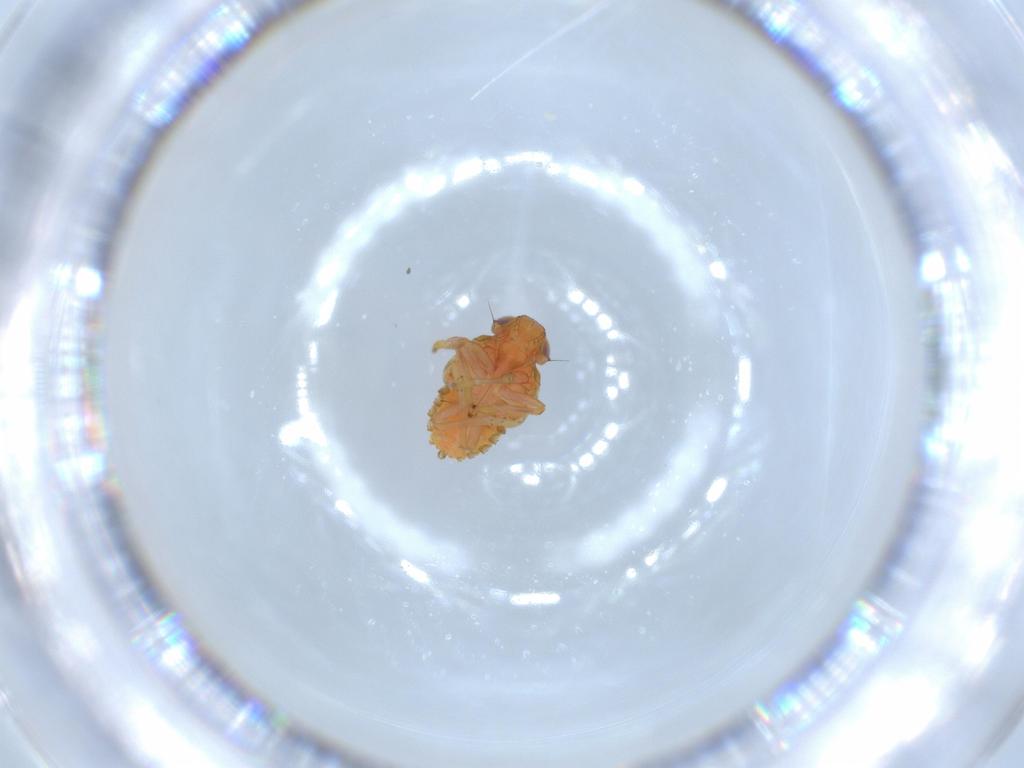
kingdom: Animalia
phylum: Arthropoda
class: Insecta
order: Hemiptera
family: Issidae
